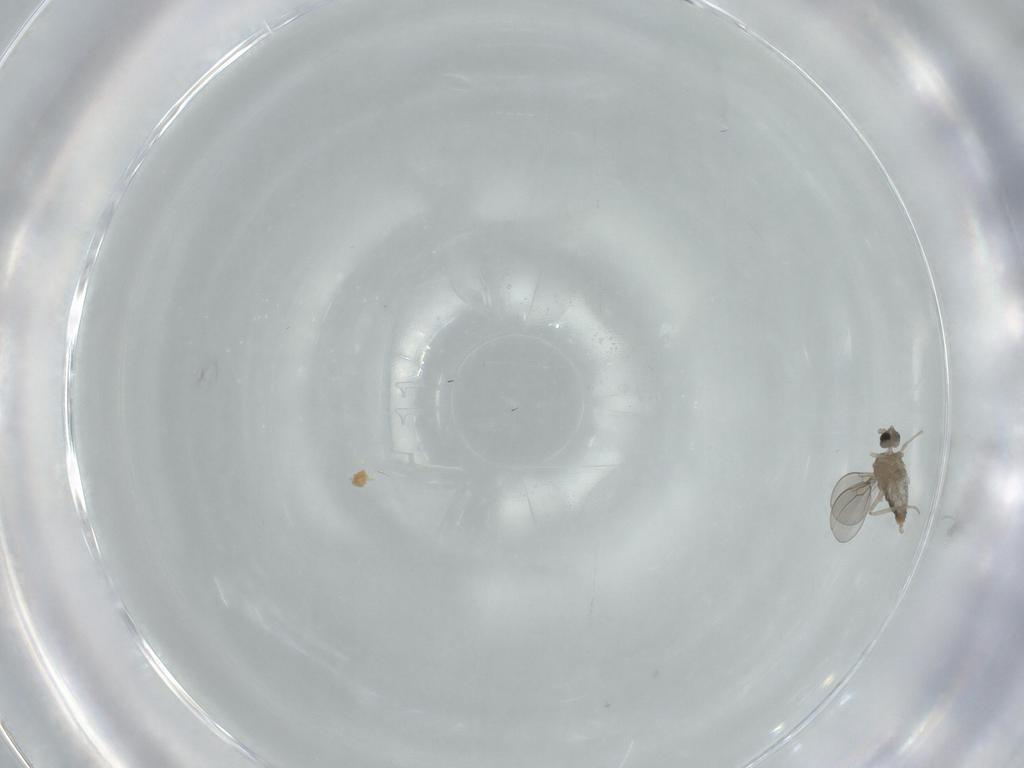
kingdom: Animalia
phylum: Arthropoda
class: Insecta
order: Diptera
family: Cecidomyiidae
